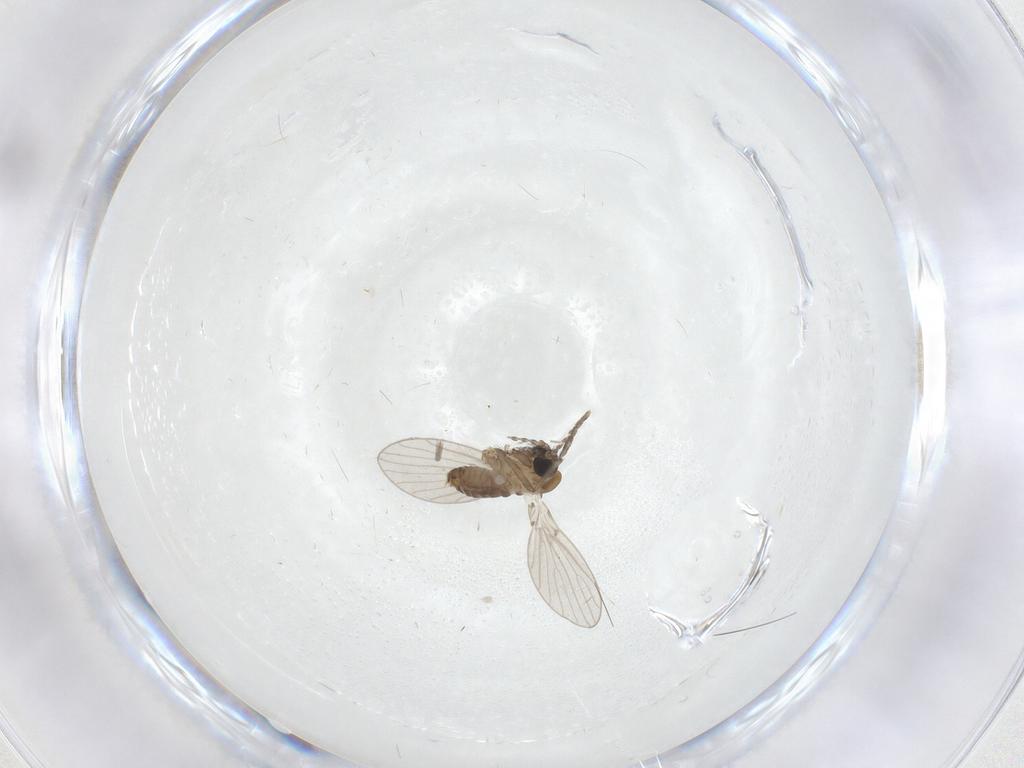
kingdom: Animalia
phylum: Arthropoda
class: Insecta
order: Diptera
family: Psychodidae
